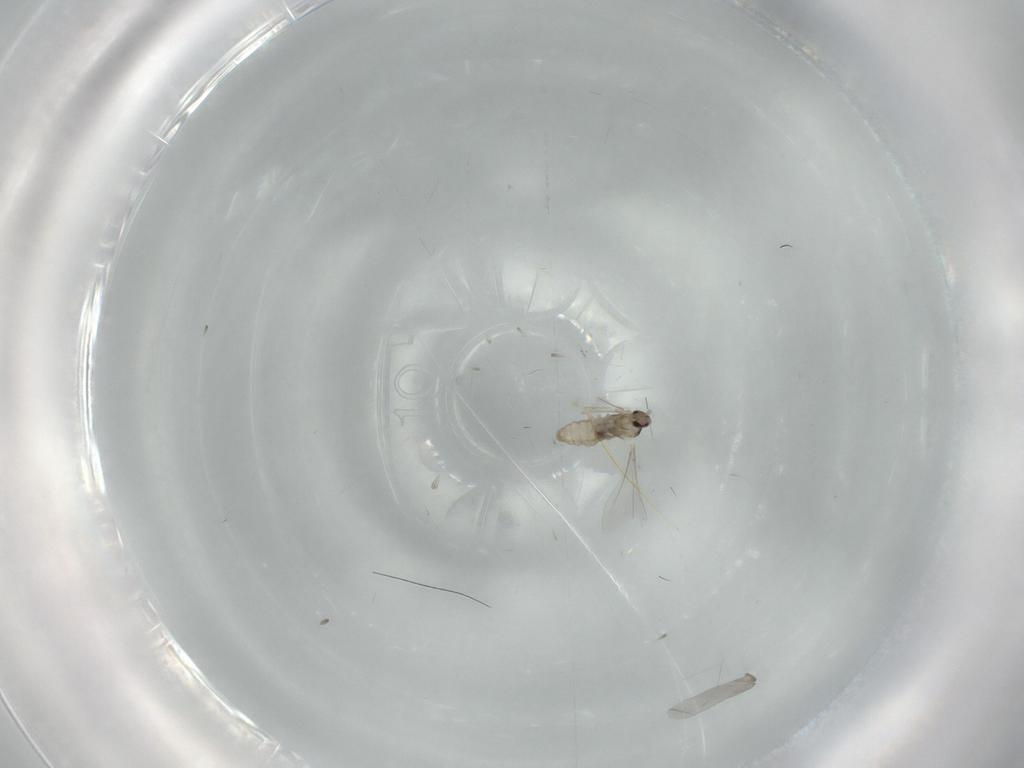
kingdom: Animalia
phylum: Arthropoda
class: Insecta
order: Diptera
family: Cecidomyiidae
